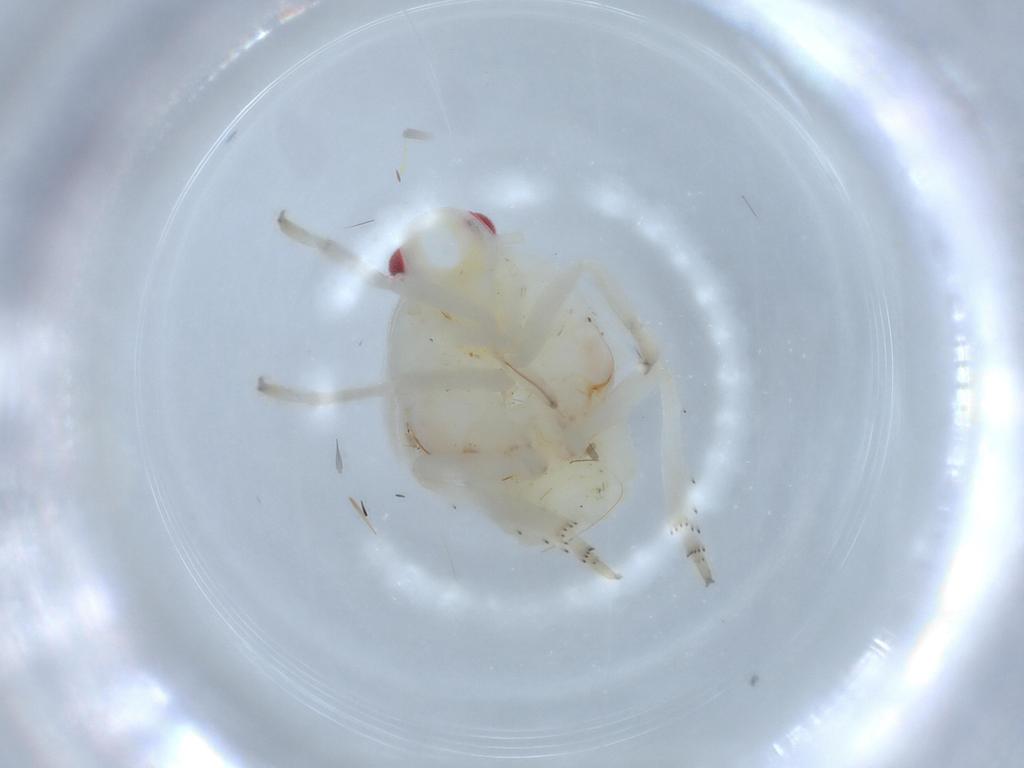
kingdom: Animalia
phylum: Arthropoda
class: Insecta
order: Hemiptera
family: Flatidae
